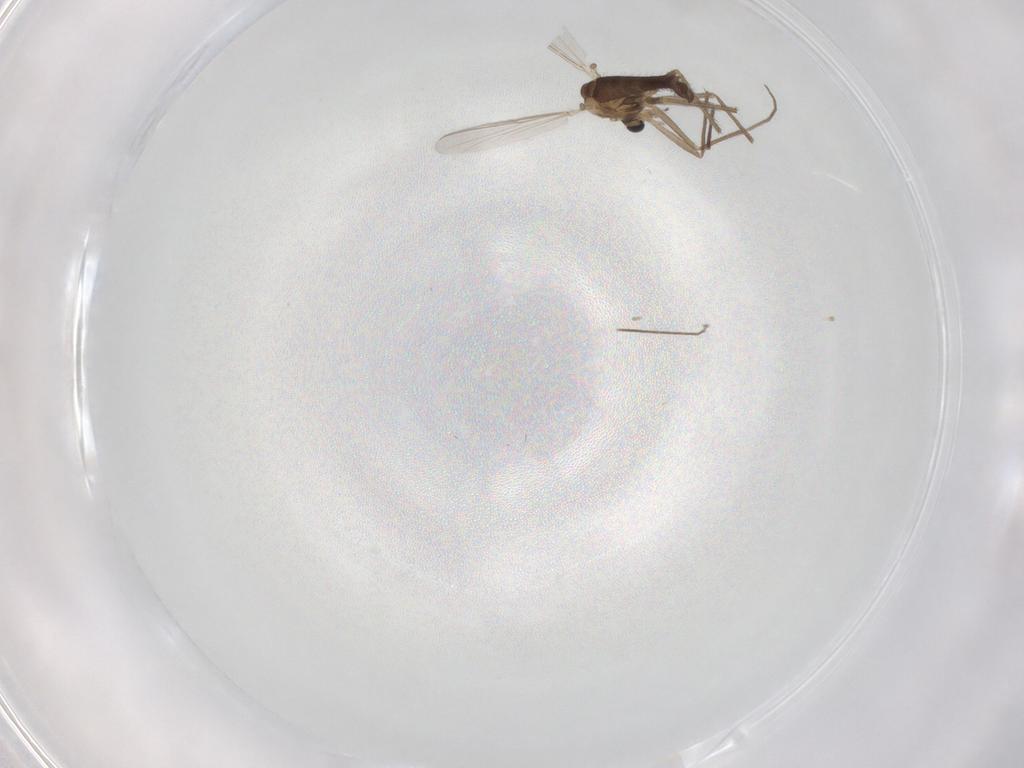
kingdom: Animalia
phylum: Arthropoda
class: Insecta
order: Diptera
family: Chironomidae
